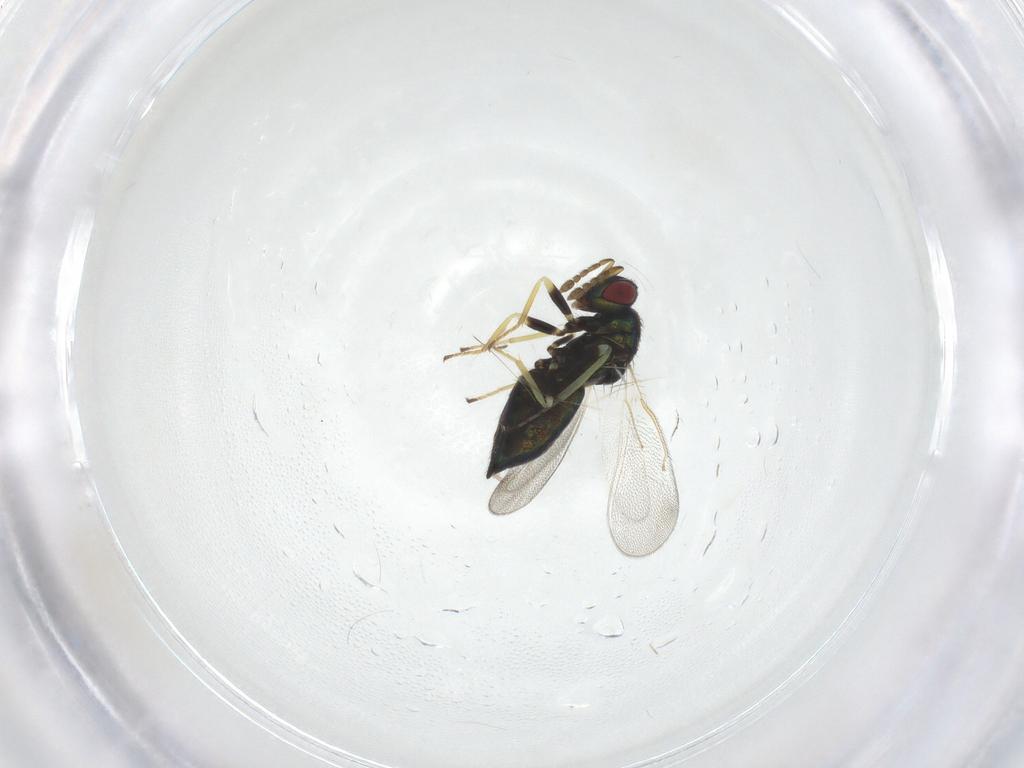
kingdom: Animalia
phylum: Arthropoda
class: Insecta
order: Hymenoptera
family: Eulophidae
